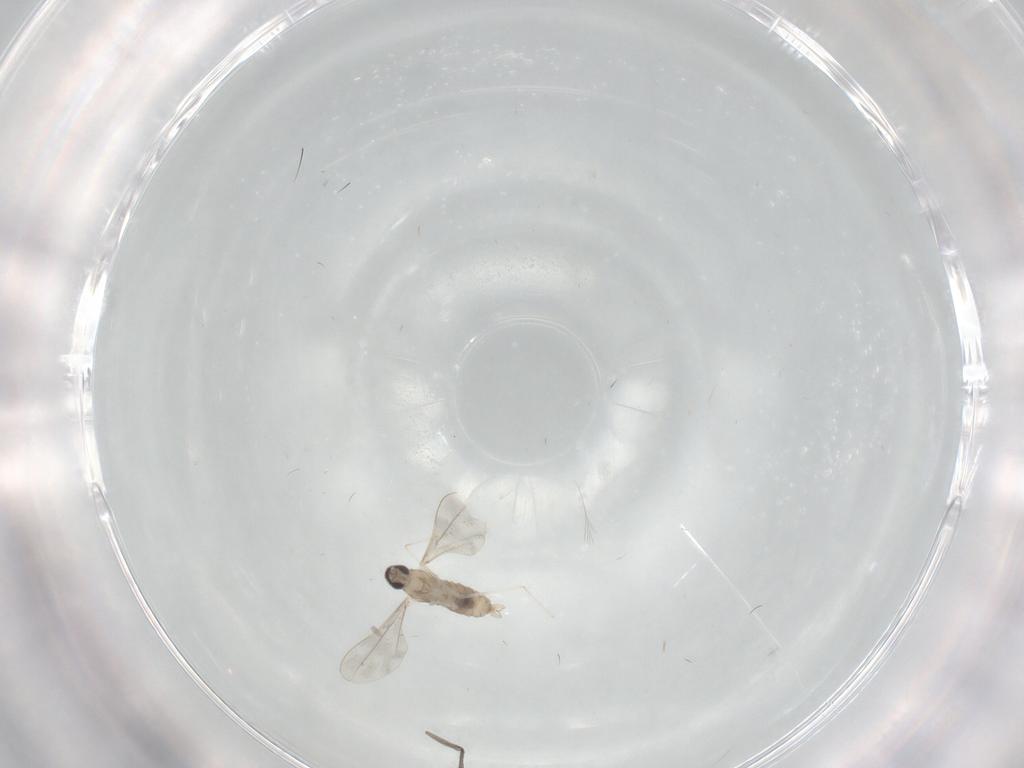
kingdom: Animalia
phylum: Arthropoda
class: Insecta
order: Diptera
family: Cecidomyiidae
